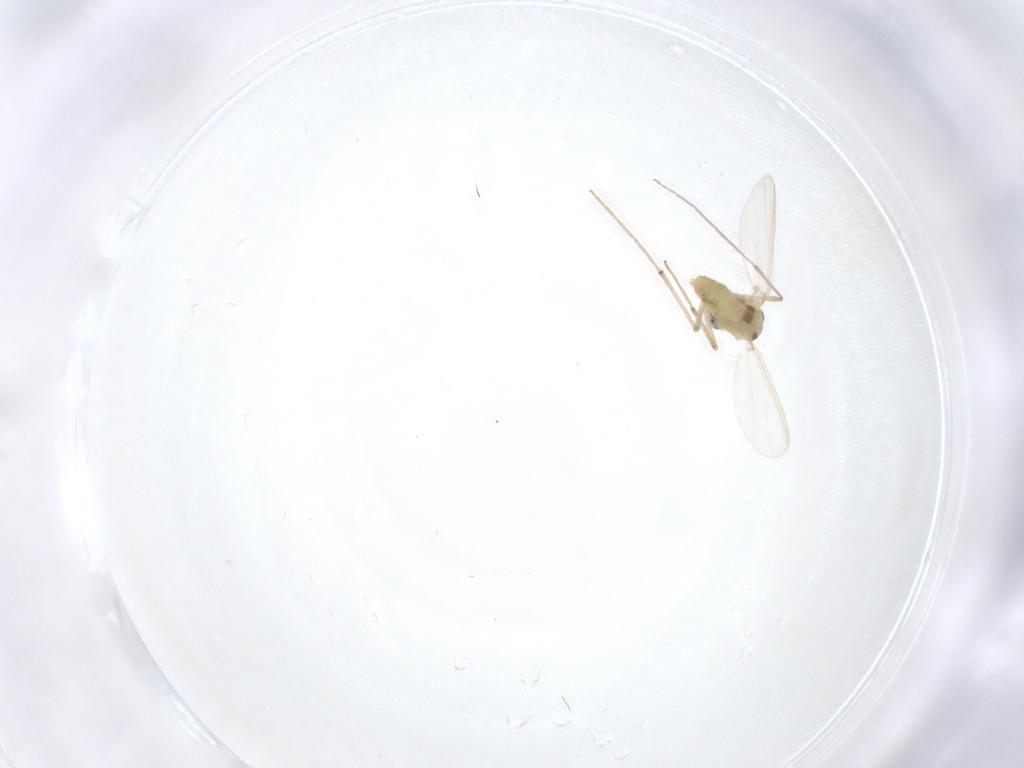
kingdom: Animalia
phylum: Arthropoda
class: Insecta
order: Diptera
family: Chironomidae
